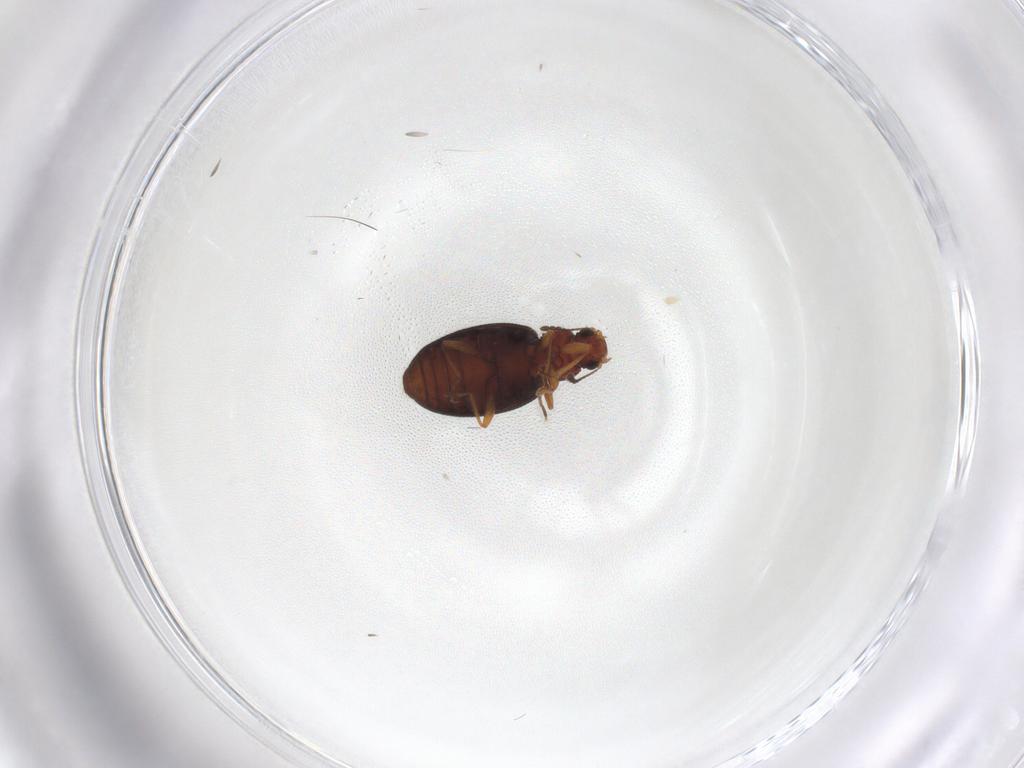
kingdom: Animalia
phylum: Arthropoda
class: Insecta
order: Coleoptera
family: Latridiidae
